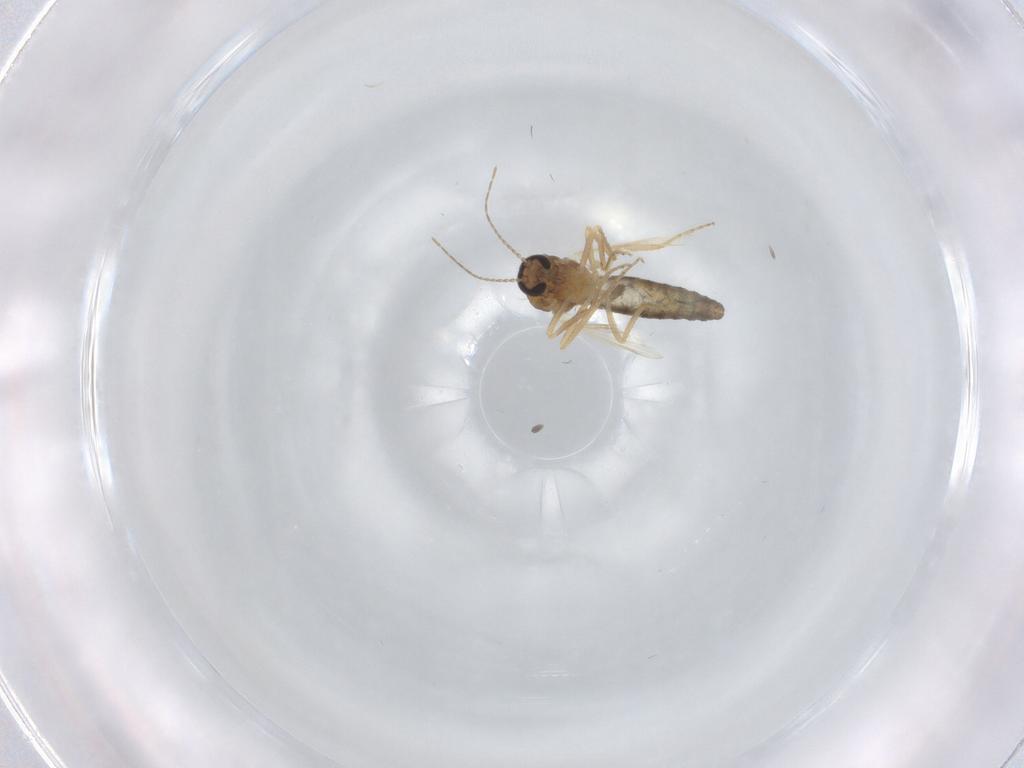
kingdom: Animalia
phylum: Arthropoda
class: Insecta
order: Diptera
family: Ceratopogonidae
